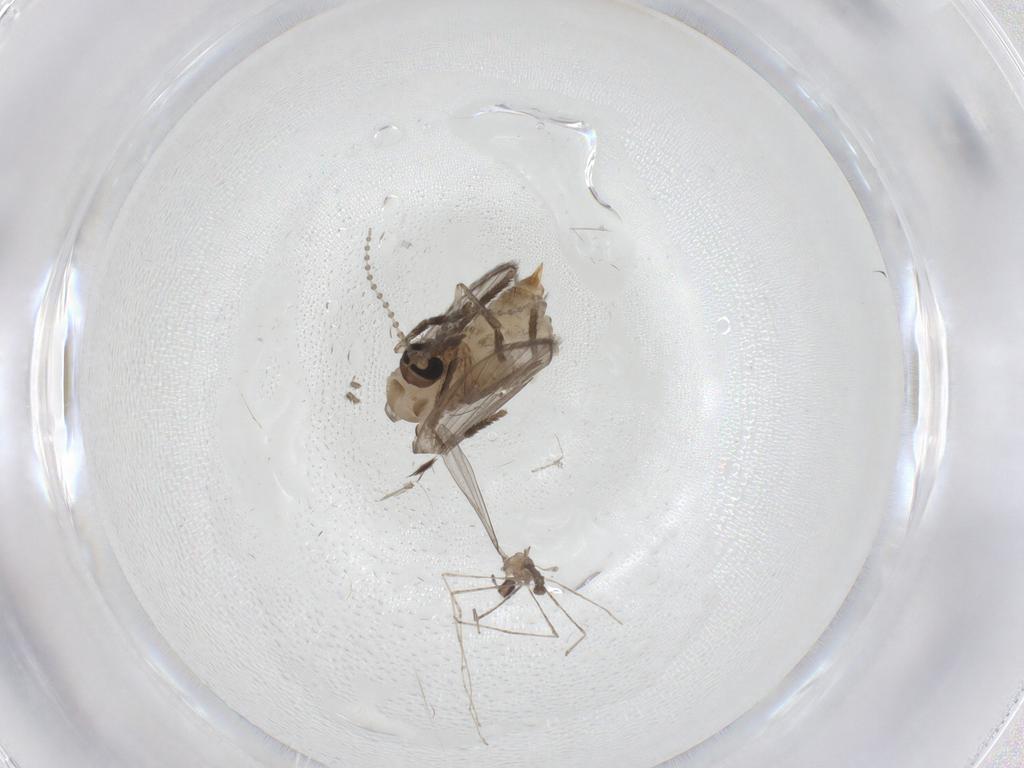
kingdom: Animalia
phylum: Arthropoda
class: Insecta
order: Diptera
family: Psychodidae
